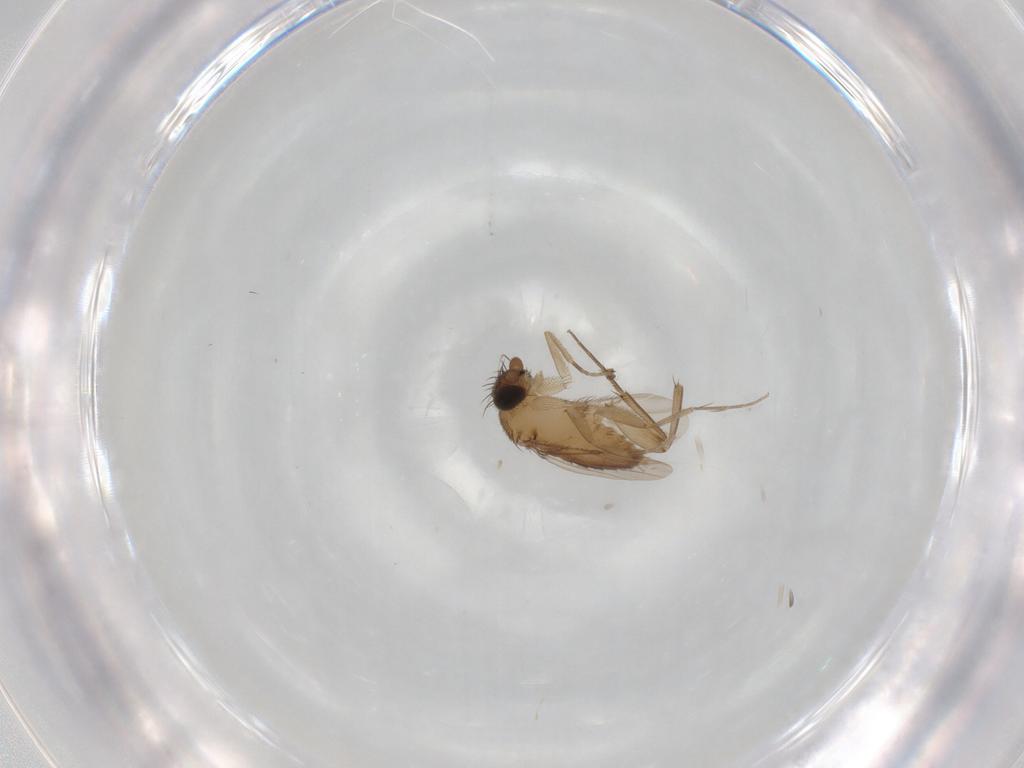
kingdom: Animalia
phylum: Arthropoda
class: Insecta
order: Diptera
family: Phoridae
